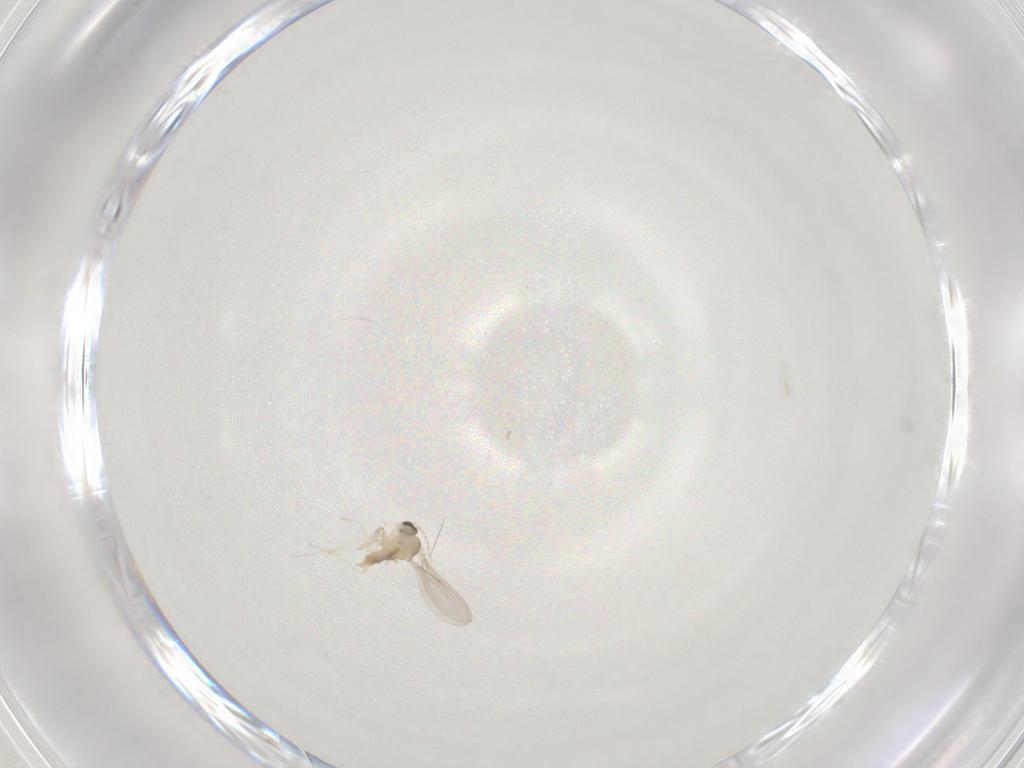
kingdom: Animalia
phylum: Arthropoda
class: Insecta
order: Diptera
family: Cecidomyiidae
